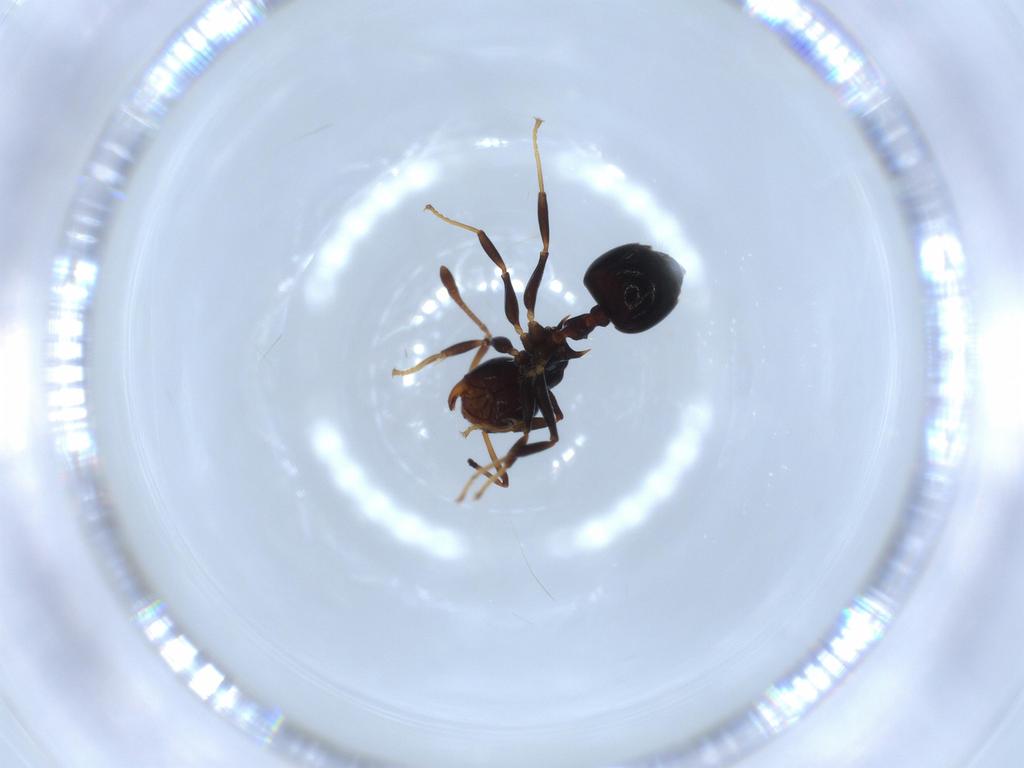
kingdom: Animalia
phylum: Arthropoda
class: Insecta
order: Hymenoptera
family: Formicidae
